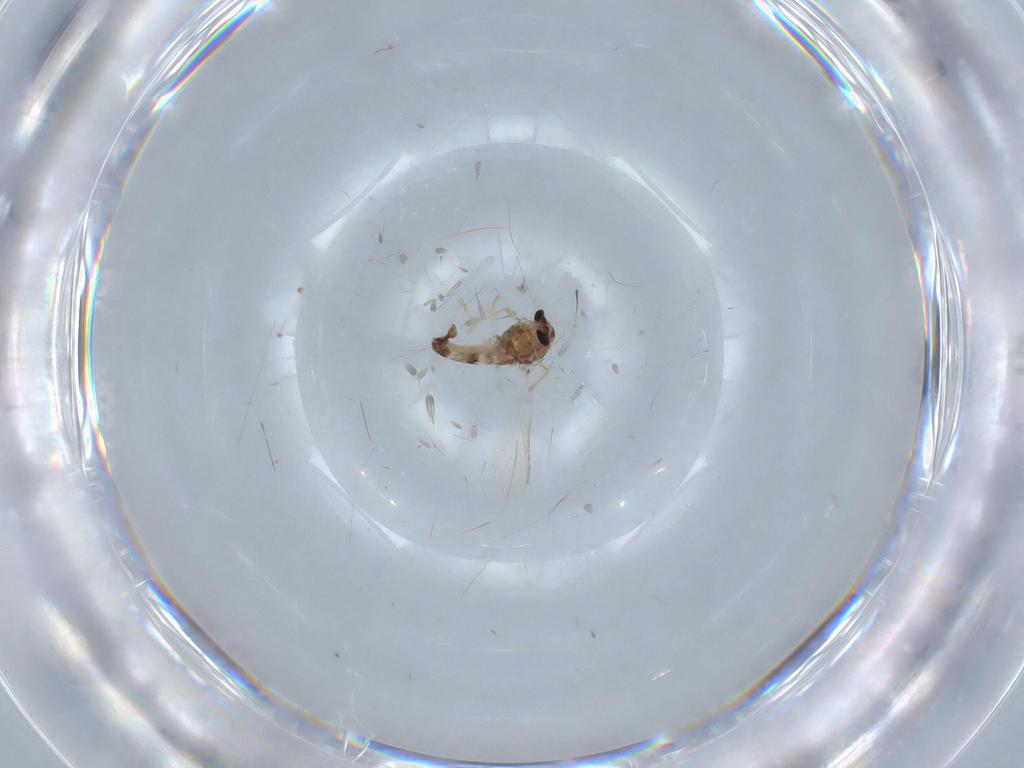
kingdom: Animalia
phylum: Arthropoda
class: Insecta
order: Diptera
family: Chironomidae
